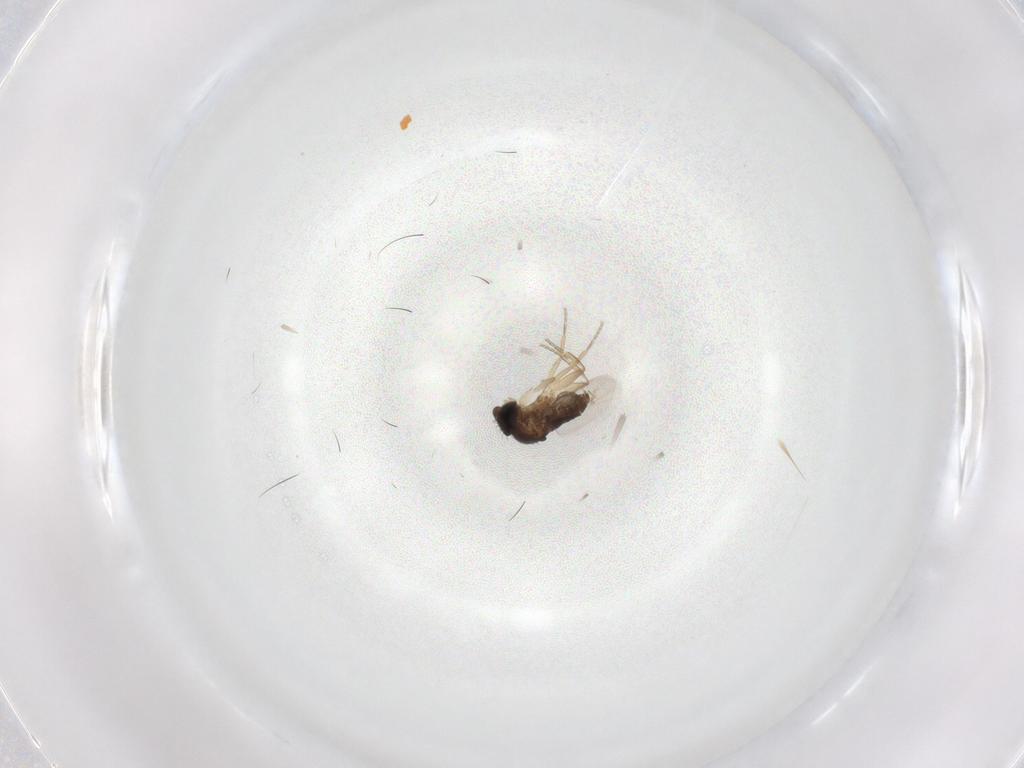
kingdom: Animalia
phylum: Arthropoda
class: Insecta
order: Diptera
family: Phoridae
